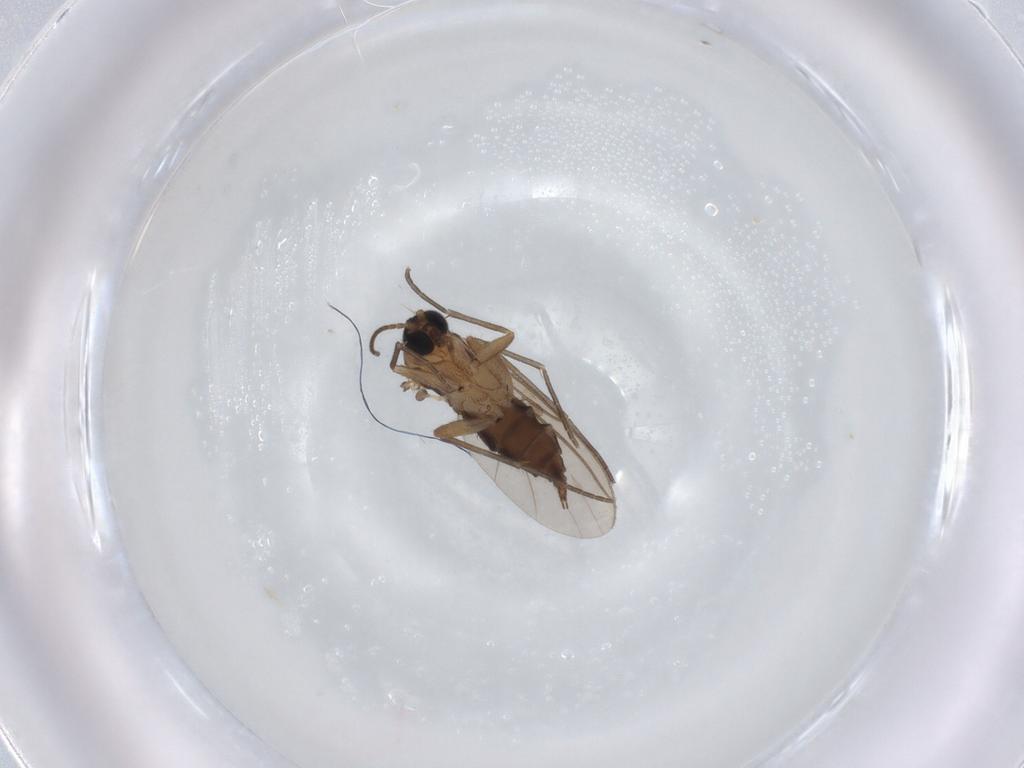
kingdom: Animalia
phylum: Arthropoda
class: Insecta
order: Diptera
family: Sciaridae
